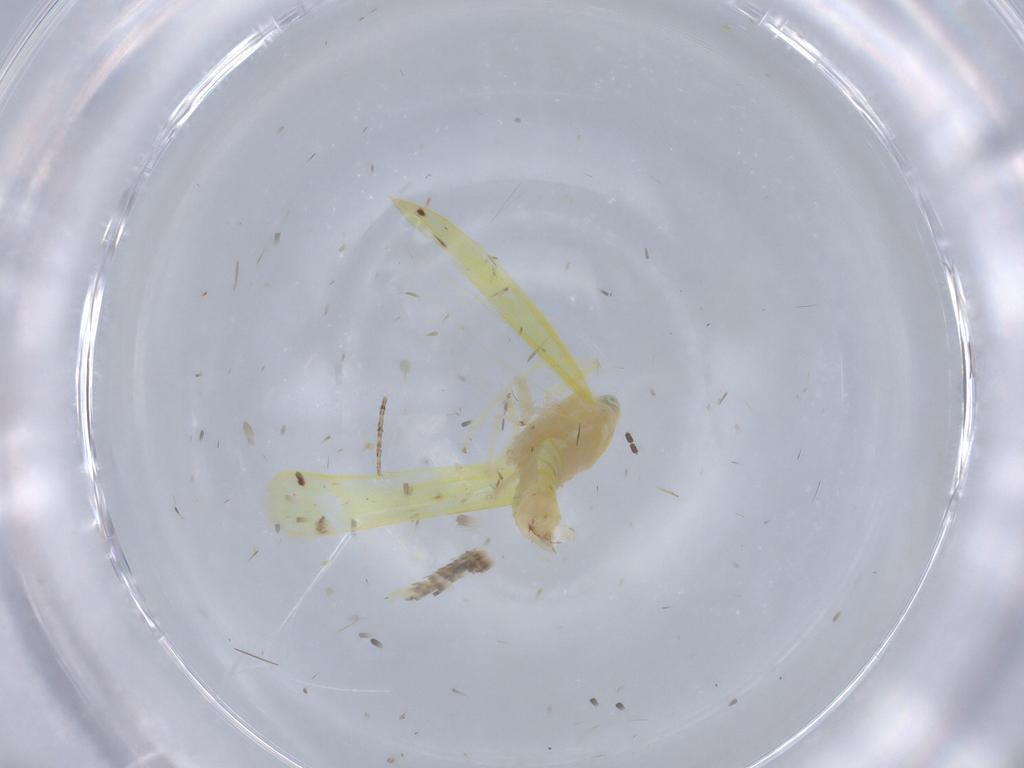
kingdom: Animalia
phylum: Arthropoda
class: Insecta
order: Hemiptera
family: Cicadellidae
